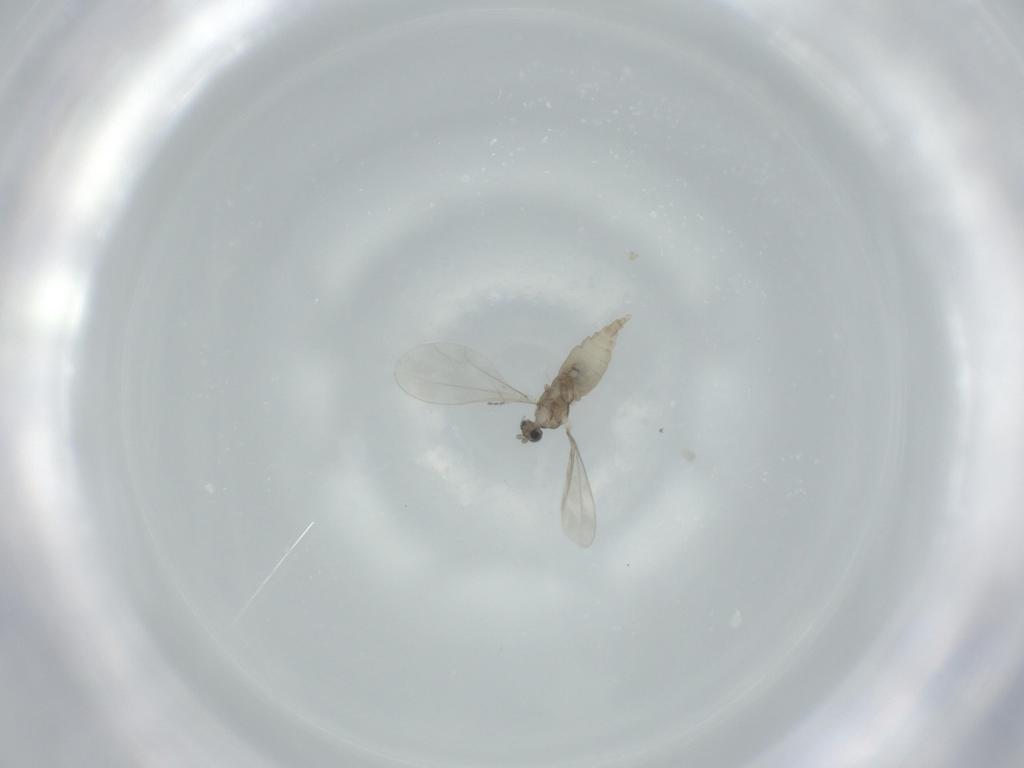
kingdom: Animalia
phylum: Arthropoda
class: Insecta
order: Diptera
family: Cecidomyiidae
